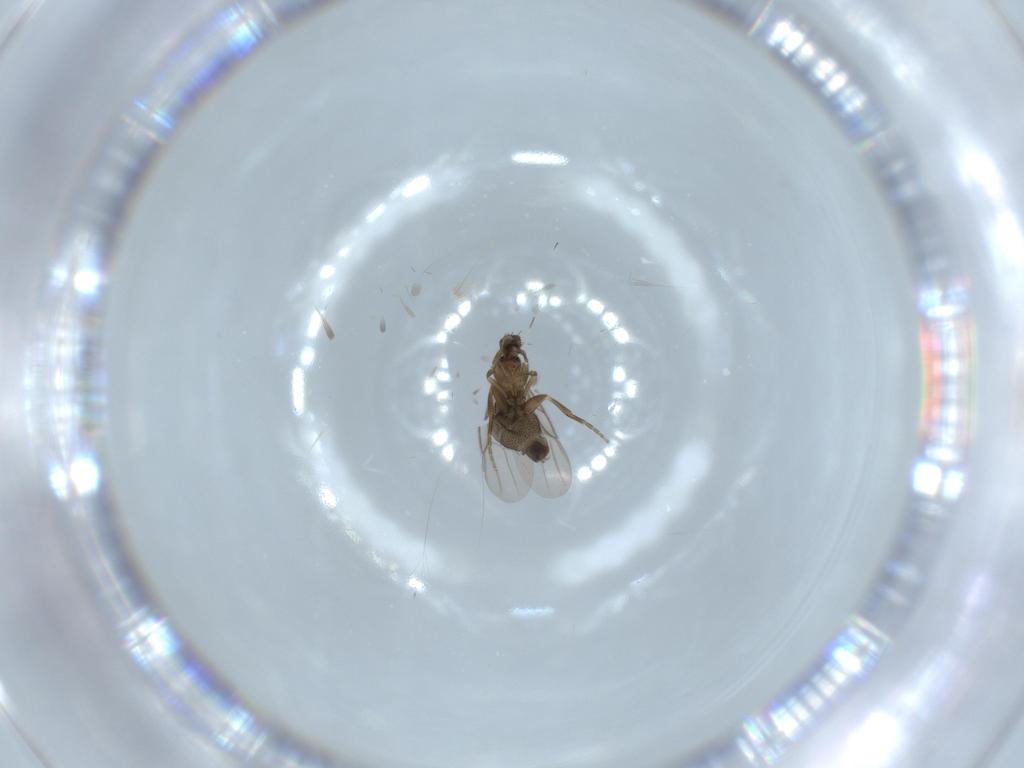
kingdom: Animalia
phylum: Arthropoda
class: Insecta
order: Diptera
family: Phoridae
